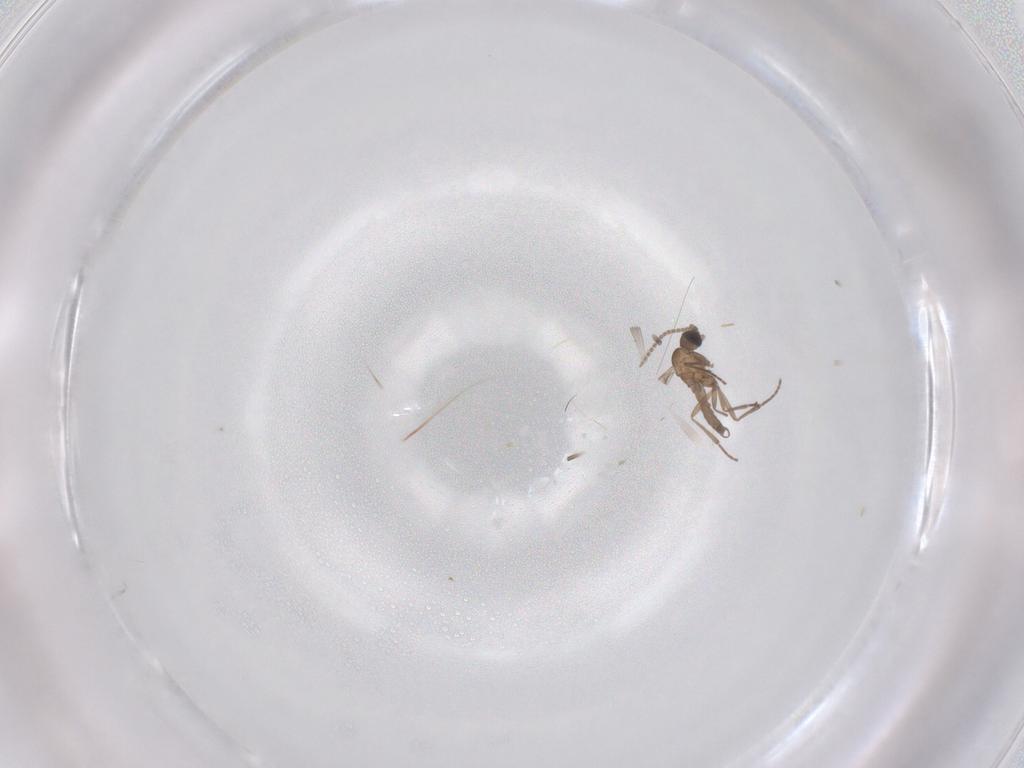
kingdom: Animalia
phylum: Arthropoda
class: Insecta
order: Diptera
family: Sciaridae
